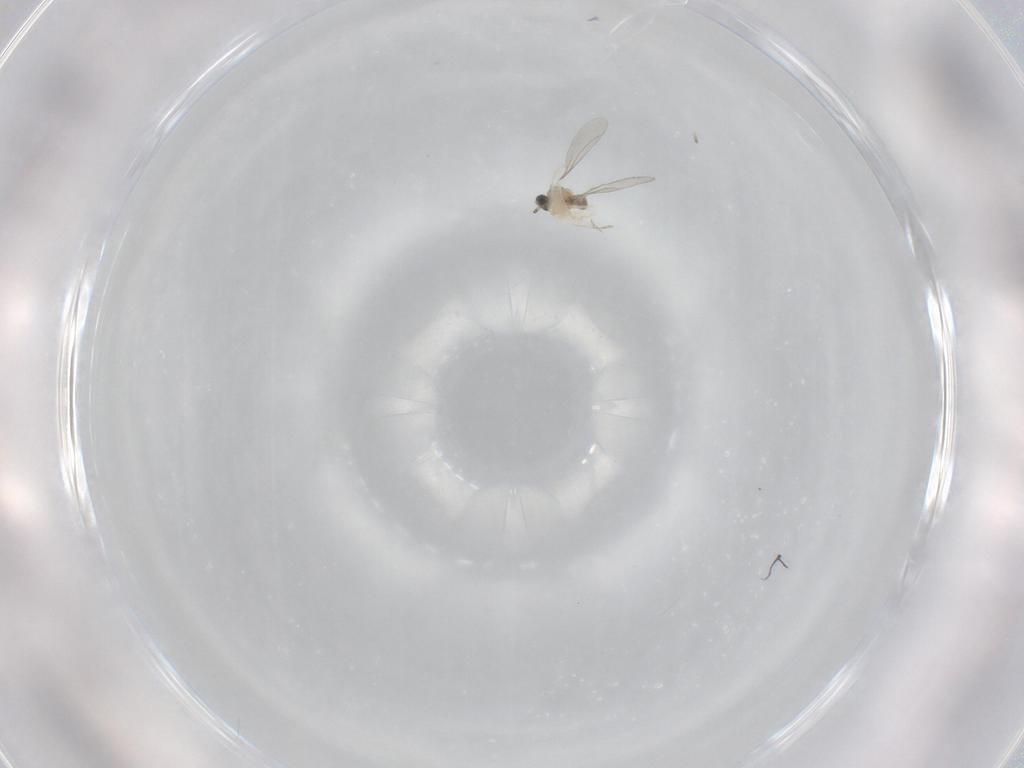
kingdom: Animalia
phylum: Arthropoda
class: Insecta
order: Diptera
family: Cecidomyiidae
